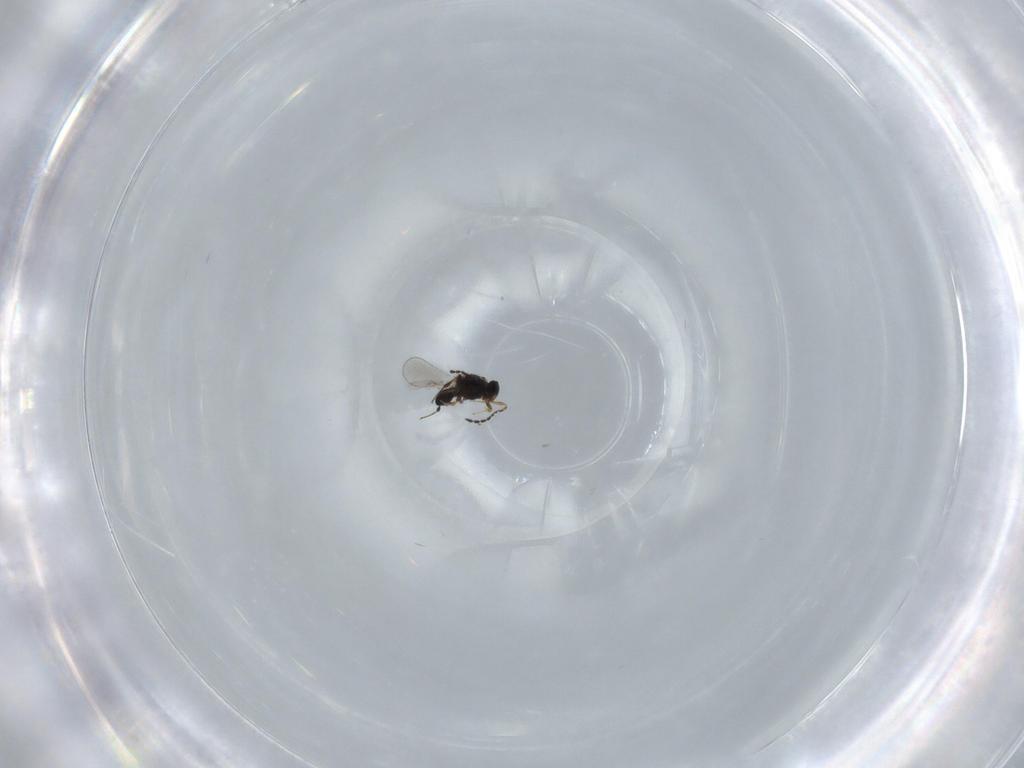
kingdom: Animalia
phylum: Arthropoda
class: Insecta
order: Hymenoptera
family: Platygastridae
